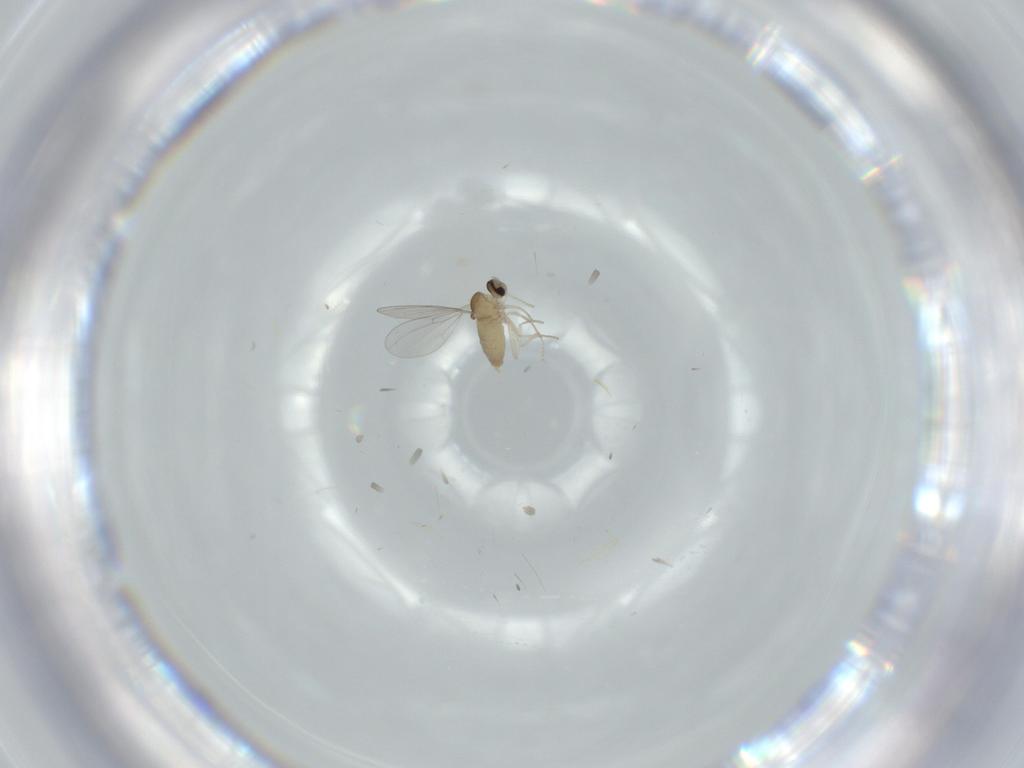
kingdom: Animalia
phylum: Arthropoda
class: Insecta
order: Diptera
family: Cecidomyiidae
